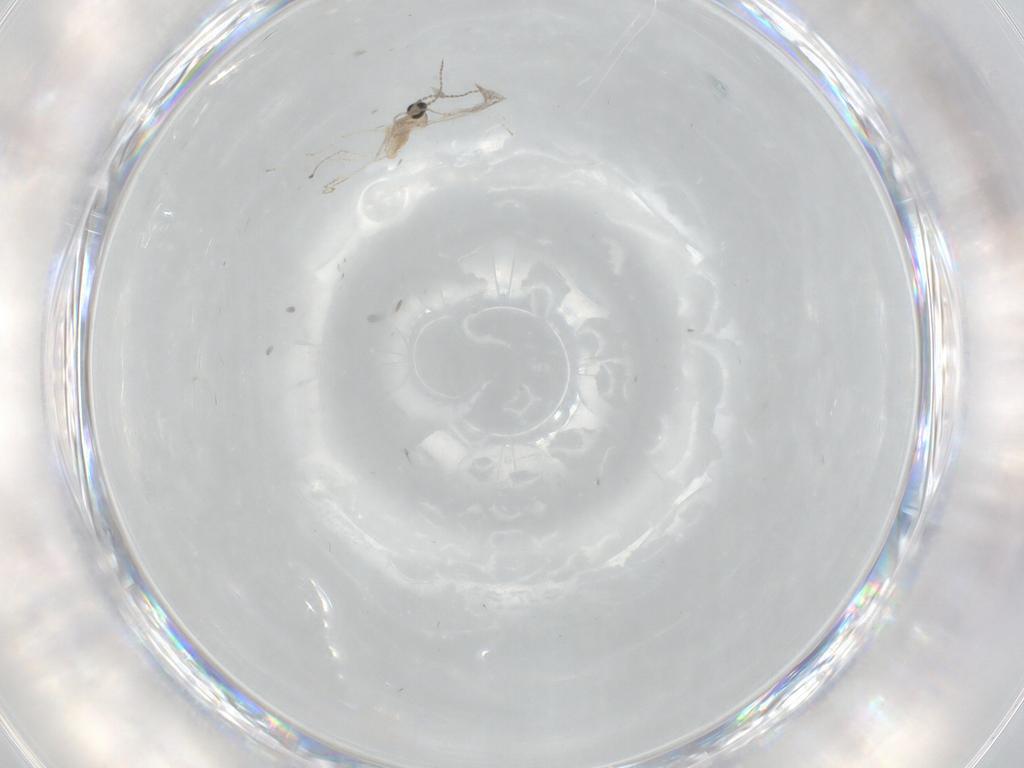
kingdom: Animalia
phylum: Arthropoda
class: Insecta
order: Diptera
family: Cecidomyiidae
